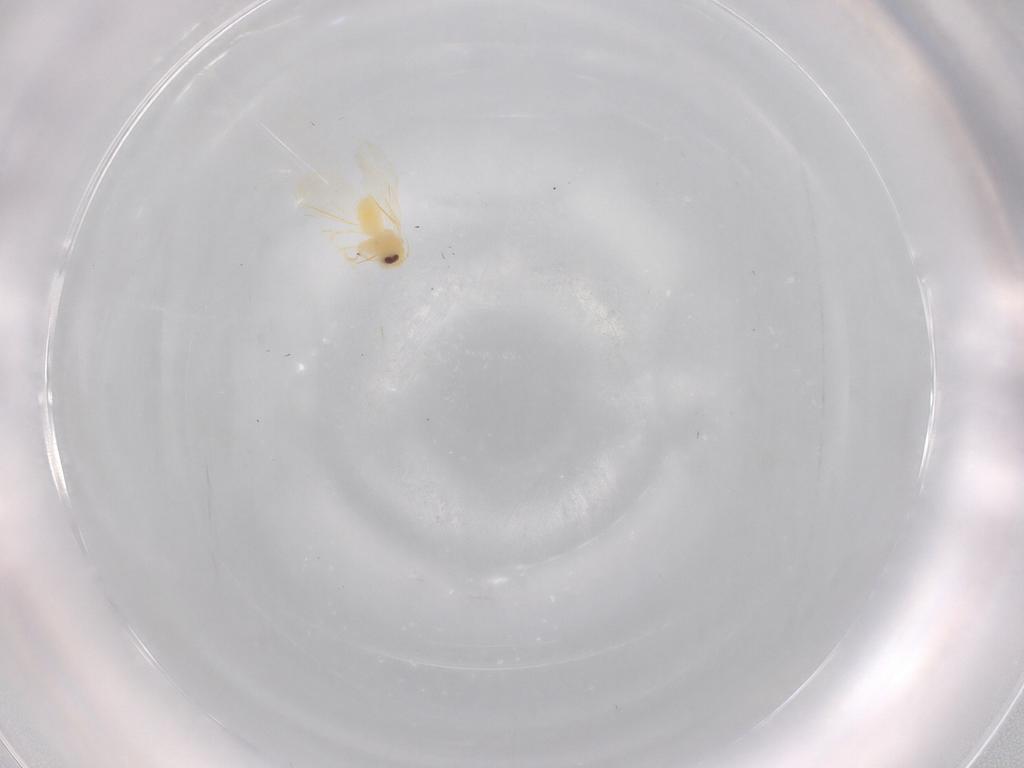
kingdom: Animalia
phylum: Arthropoda
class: Insecta
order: Hemiptera
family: Aleyrodidae
